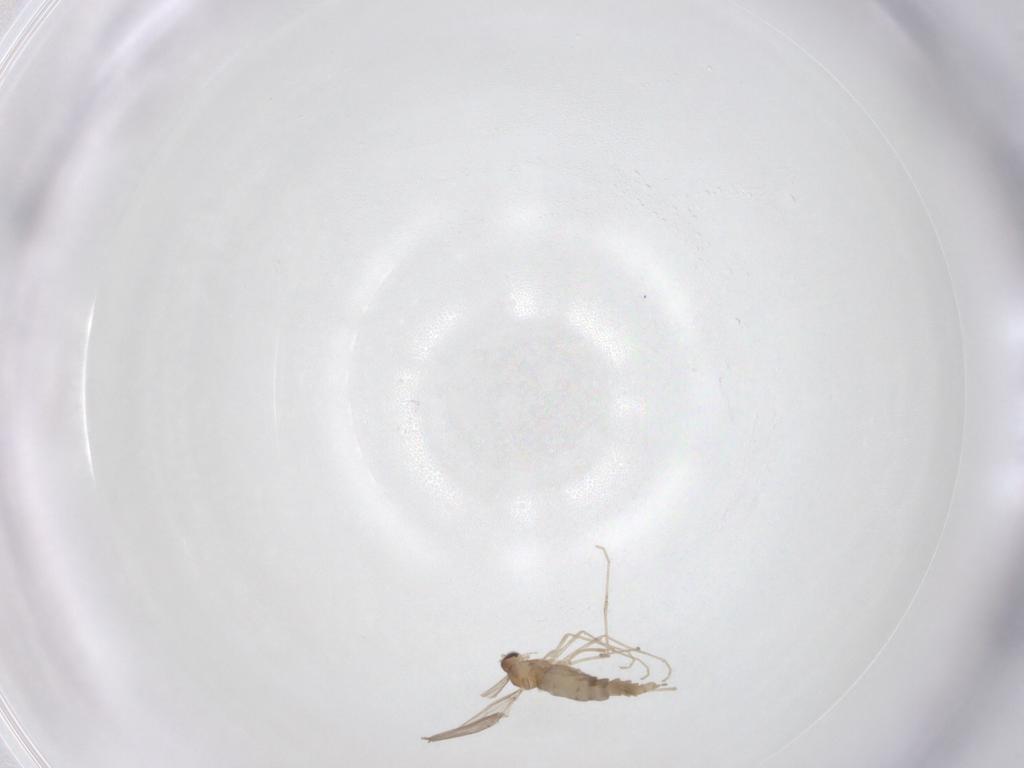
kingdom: Animalia
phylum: Arthropoda
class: Insecta
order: Diptera
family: Cecidomyiidae
